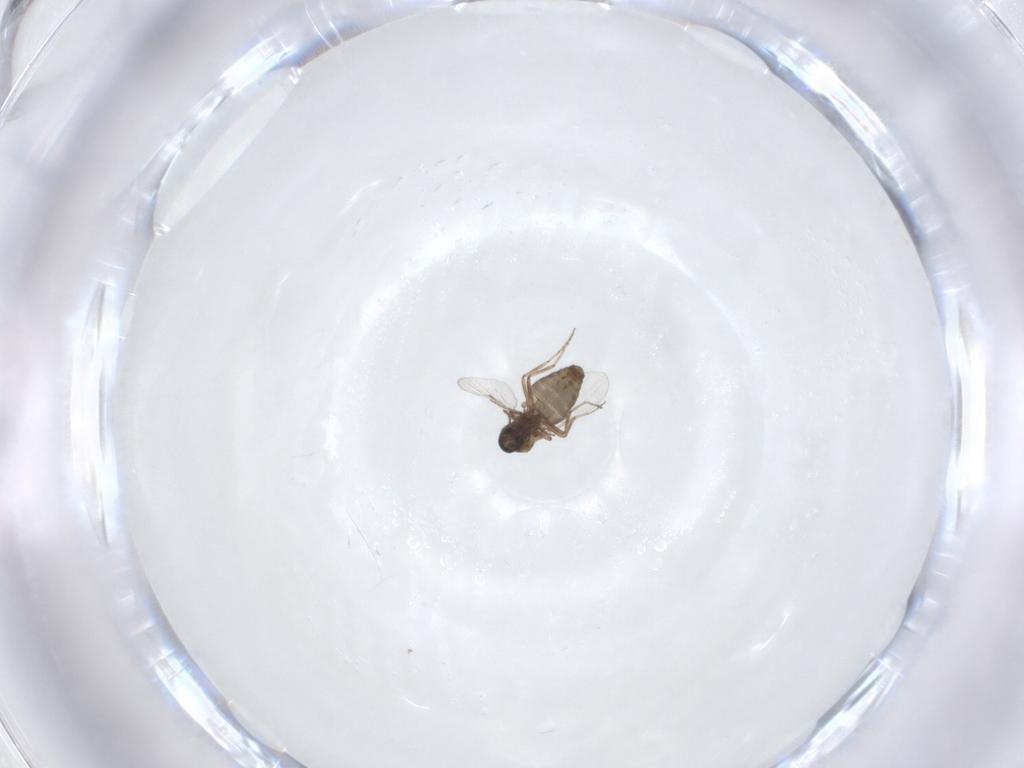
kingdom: Animalia
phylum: Arthropoda
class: Insecta
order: Diptera
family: Ceratopogonidae
